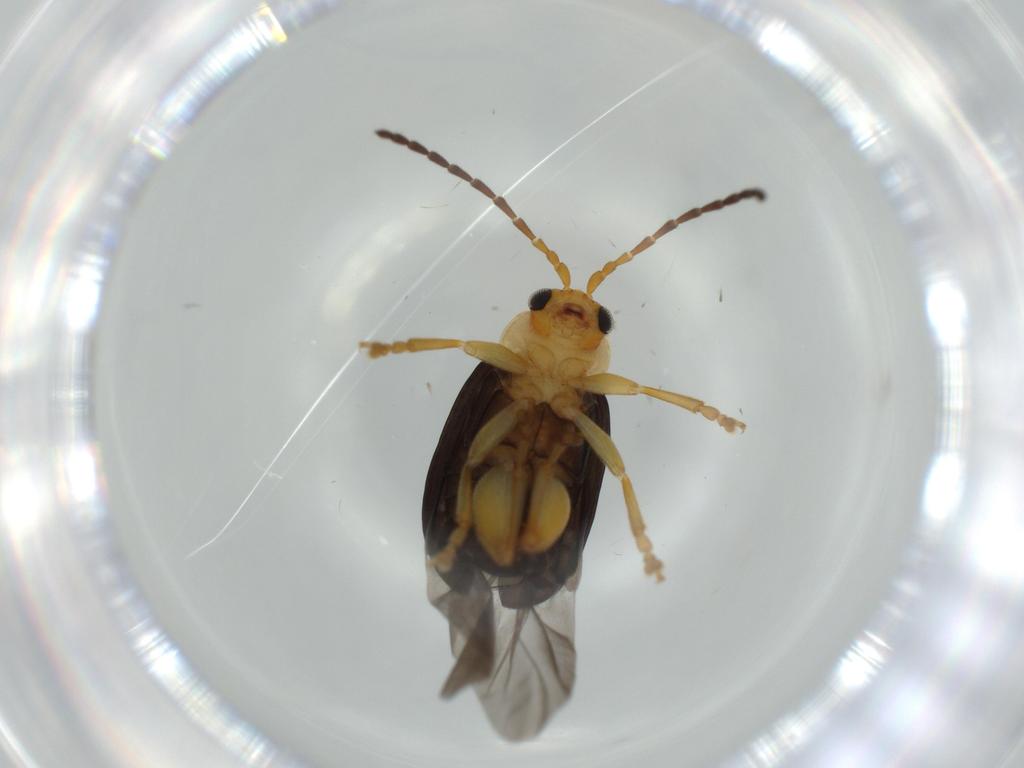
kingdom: Animalia
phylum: Arthropoda
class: Insecta
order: Coleoptera
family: Chrysomelidae
